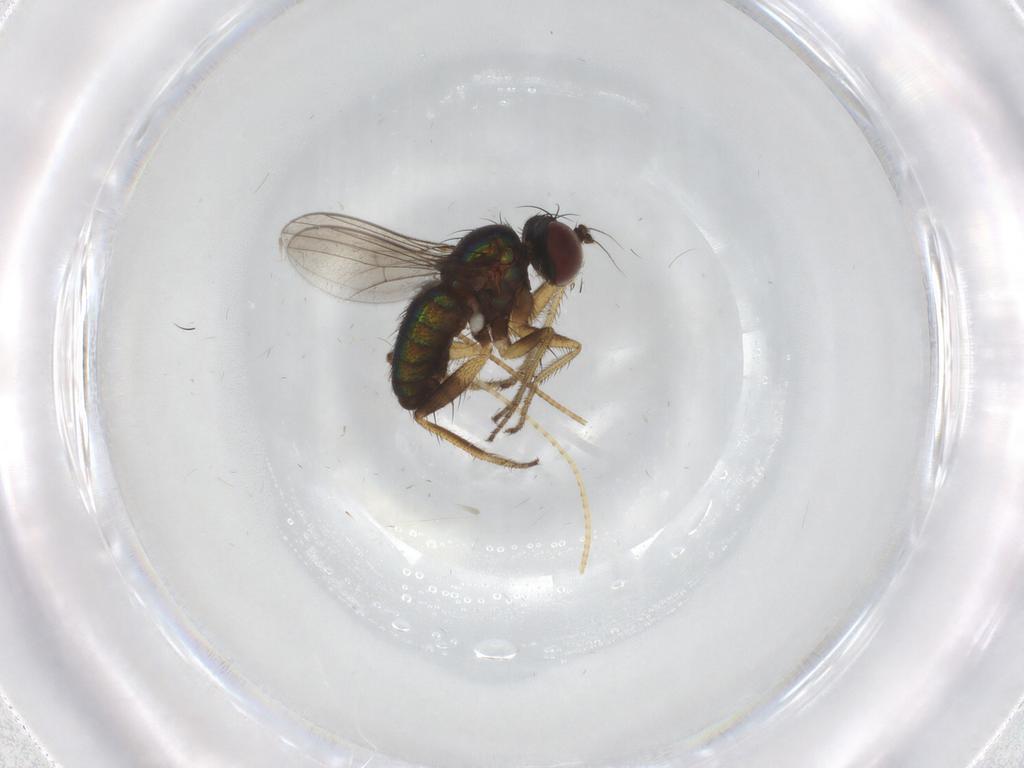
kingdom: Animalia
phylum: Arthropoda
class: Insecta
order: Diptera
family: Dolichopodidae
